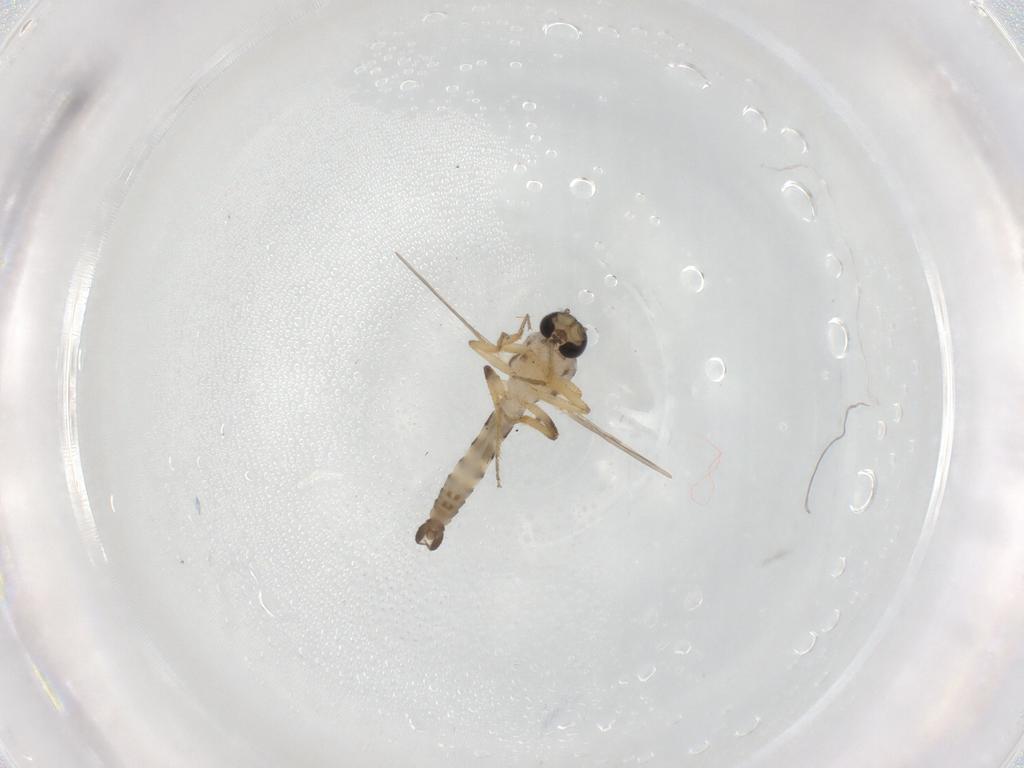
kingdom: Animalia
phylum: Arthropoda
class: Insecta
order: Diptera
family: Ceratopogonidae
